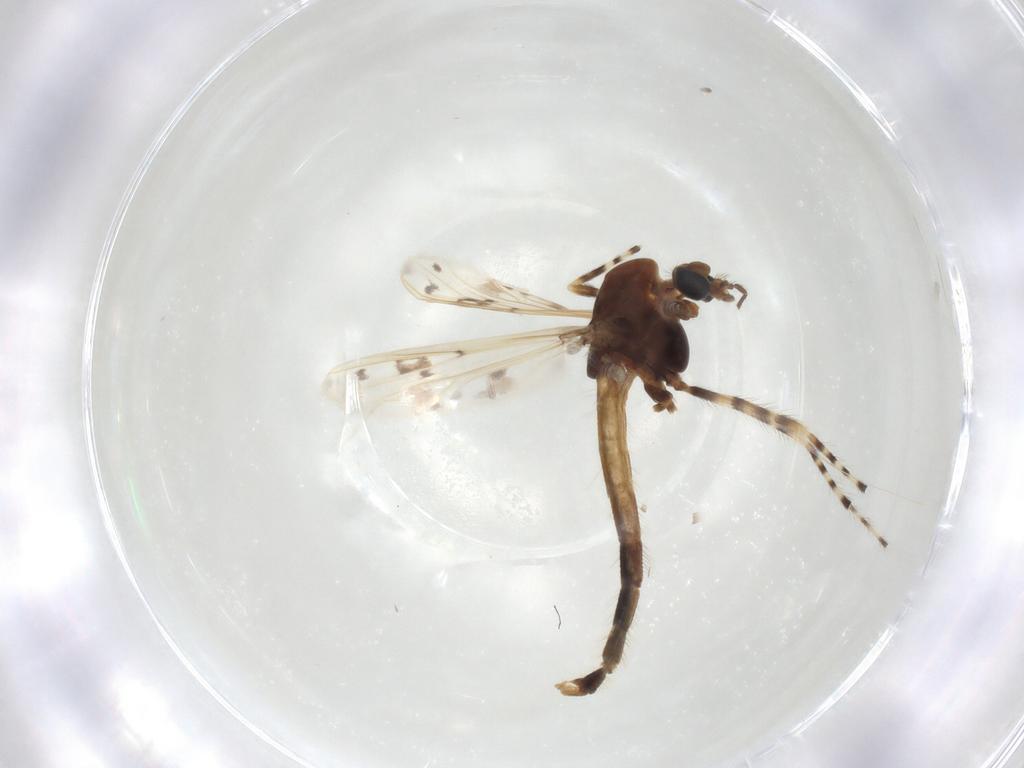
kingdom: Animalia
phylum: Arthropoda
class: Insecta
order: Diptera
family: Chironomidae
